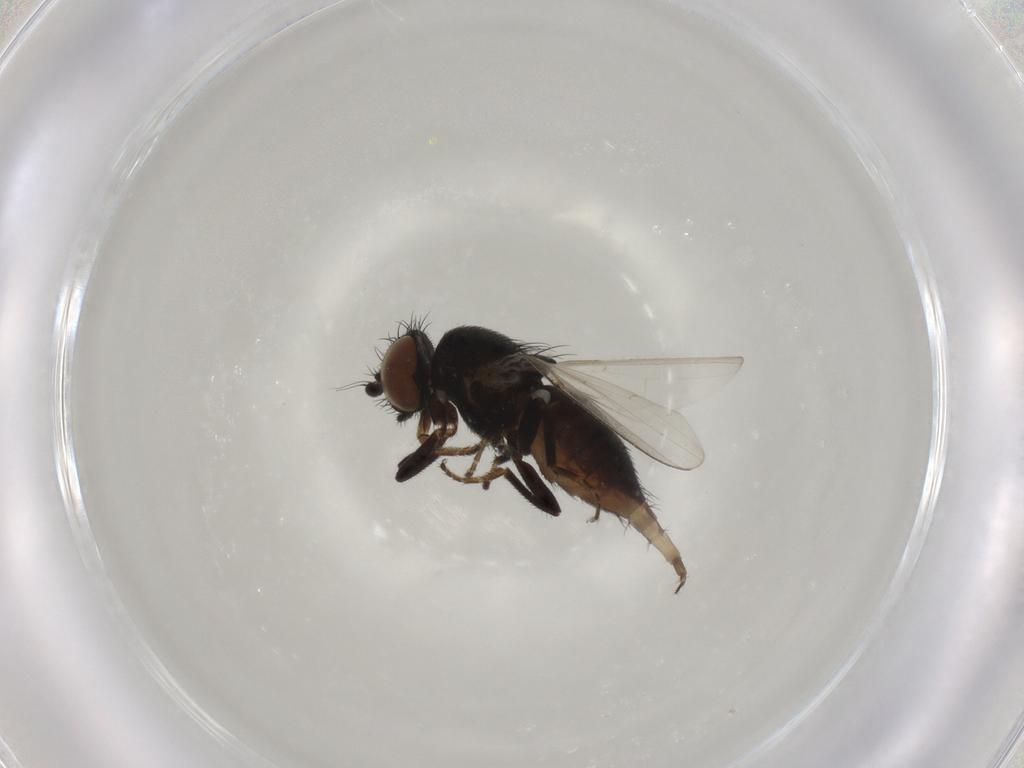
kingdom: Animalia
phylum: Arthropoda
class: Insecta
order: Diptera
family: Milichiidae
